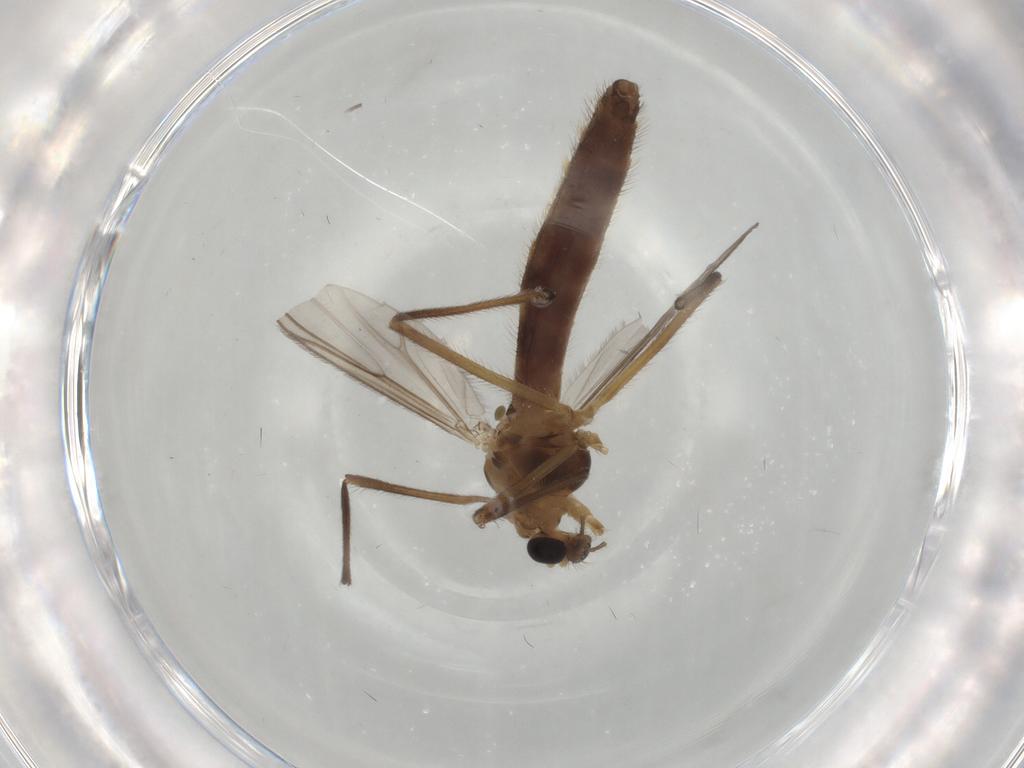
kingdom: Animalia
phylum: Arthropoda
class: Insecta
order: Diptera
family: Chironomidae
